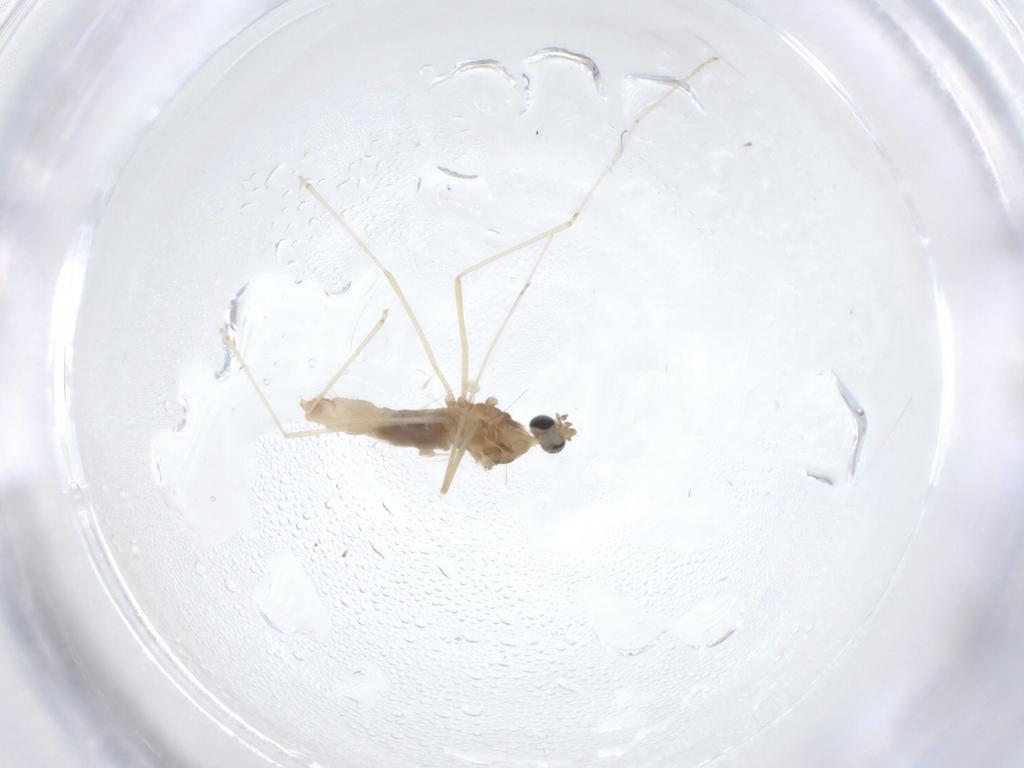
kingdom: Animalia
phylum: Arthropoda
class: Insecta
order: Diptera
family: Cecidomyiidae
